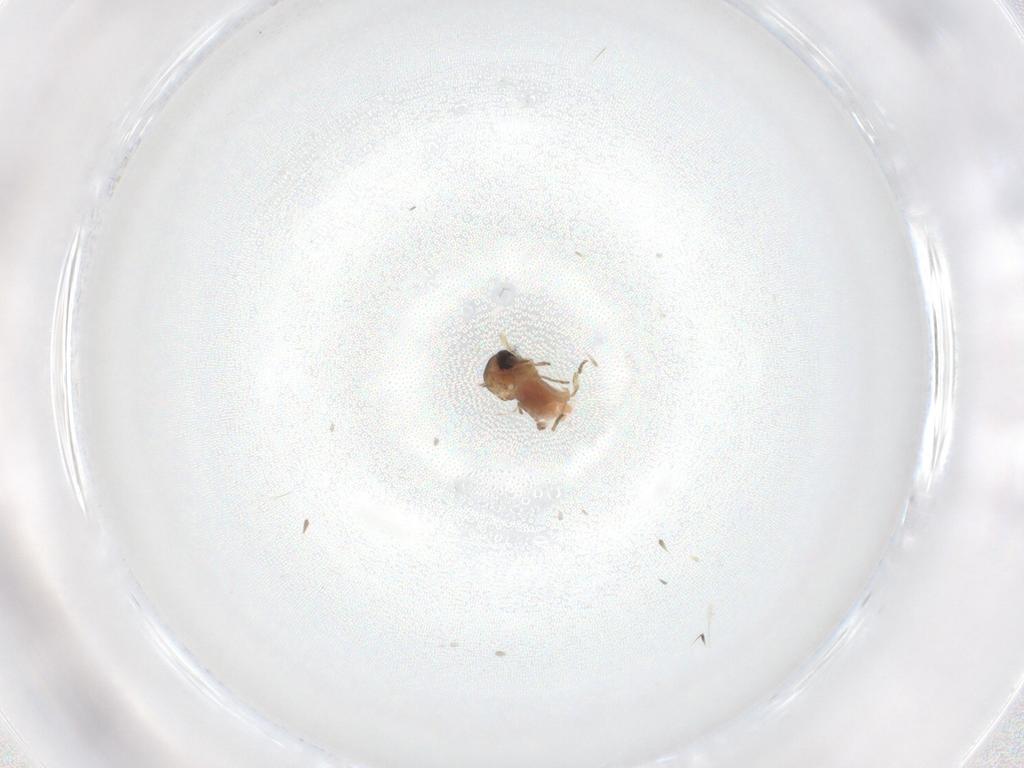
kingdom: Animalia
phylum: Arthropoda
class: Insecta
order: Diptera
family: Ceratopogonidae
